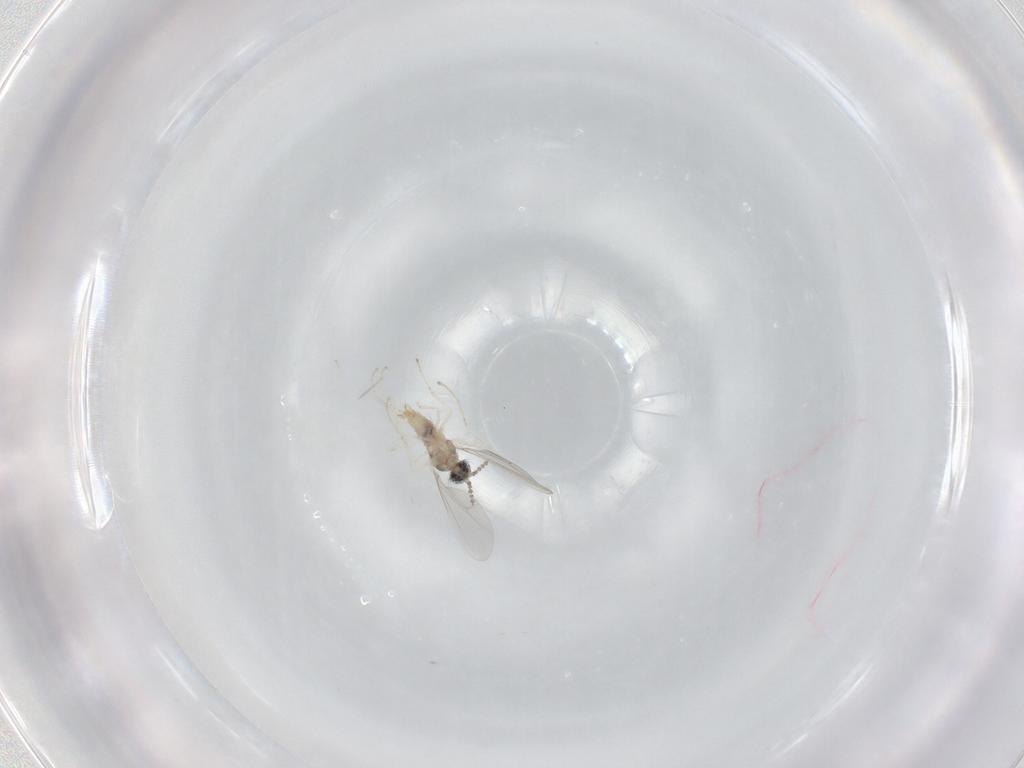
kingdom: Animalia
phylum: Arthropoda
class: Insecta
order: Diptera
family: Cecidomyiidae
